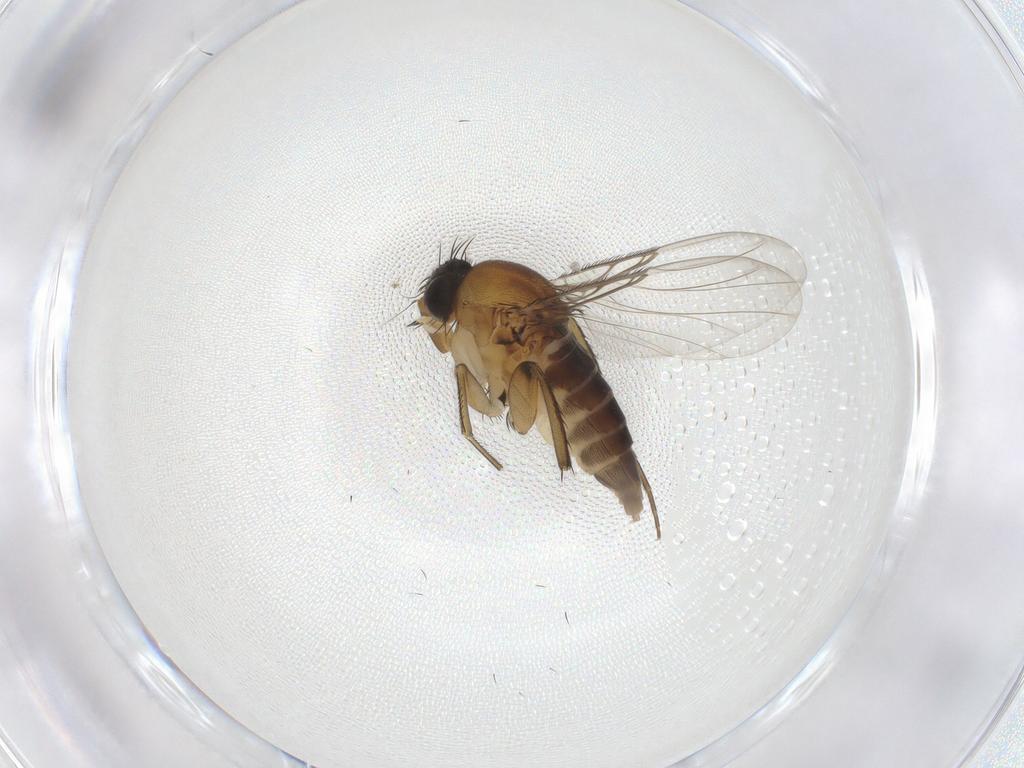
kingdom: Animalia
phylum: Arthropoda
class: Insecta
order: Diptera
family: Phoridae
